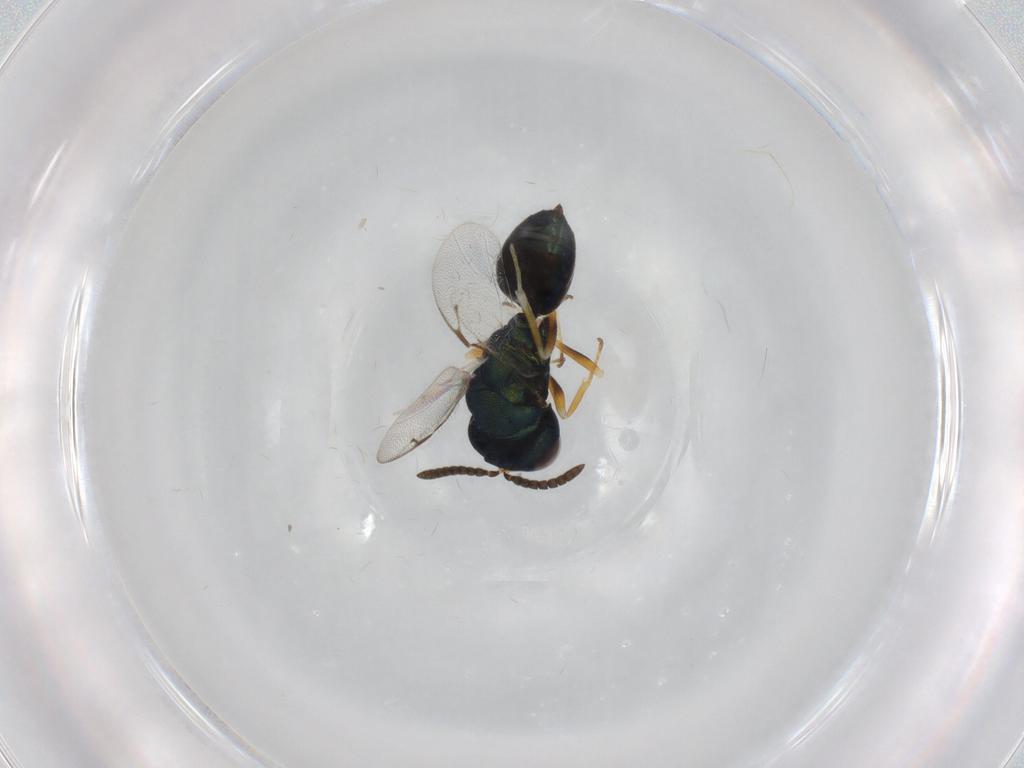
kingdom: Animalia
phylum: Arthropoda
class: Insecta
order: Hymenoptera
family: Pteromalidae
